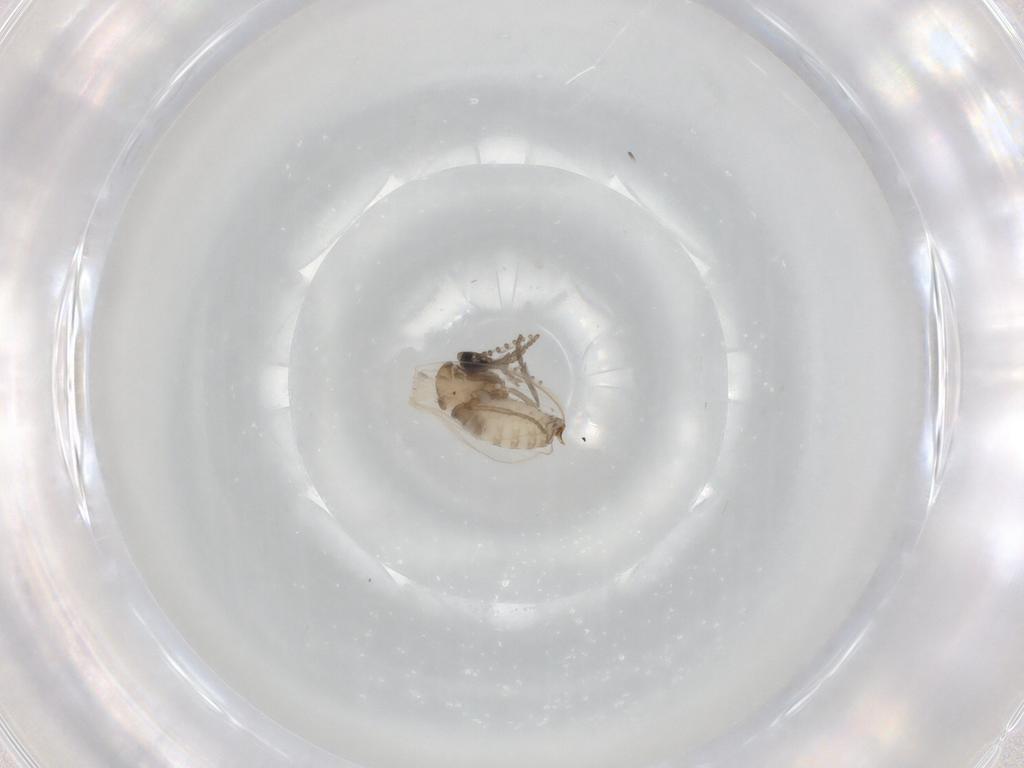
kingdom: Animalia
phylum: Arthropoda
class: Insecta
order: Diptera
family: Psychodidae
